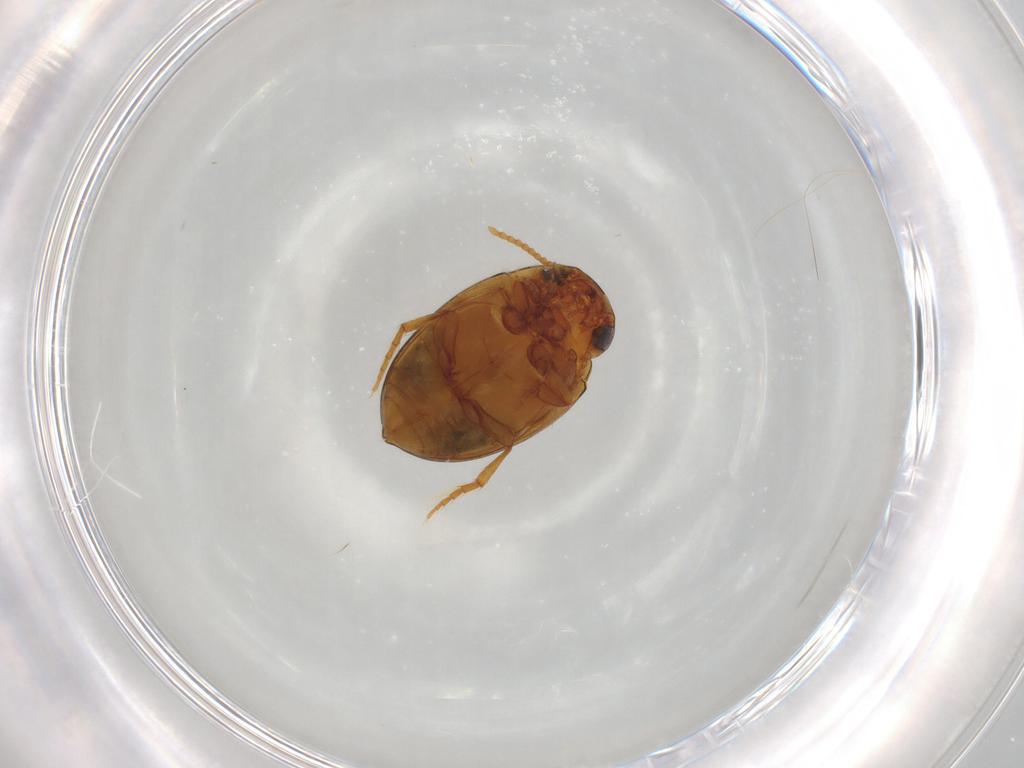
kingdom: Animalia
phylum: Arthropoda
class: Insecta
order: Coleoptera
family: Dytiscidae
